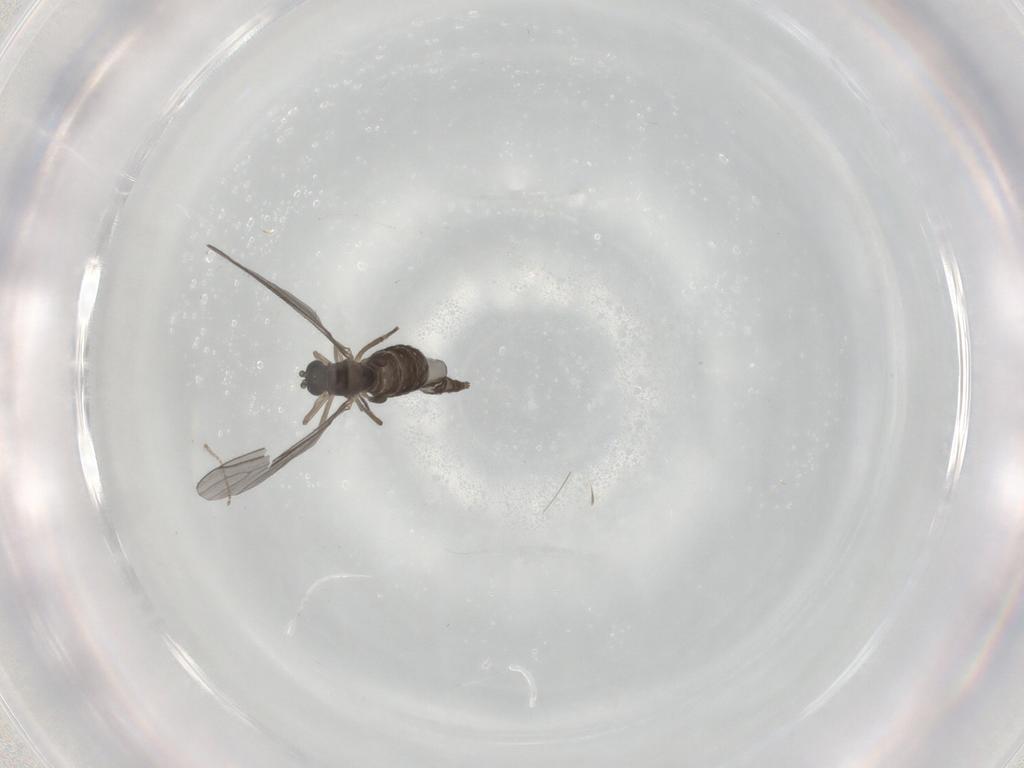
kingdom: Animalia
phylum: Arthropoda
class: Insecta
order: Diptera
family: Sciaridae
